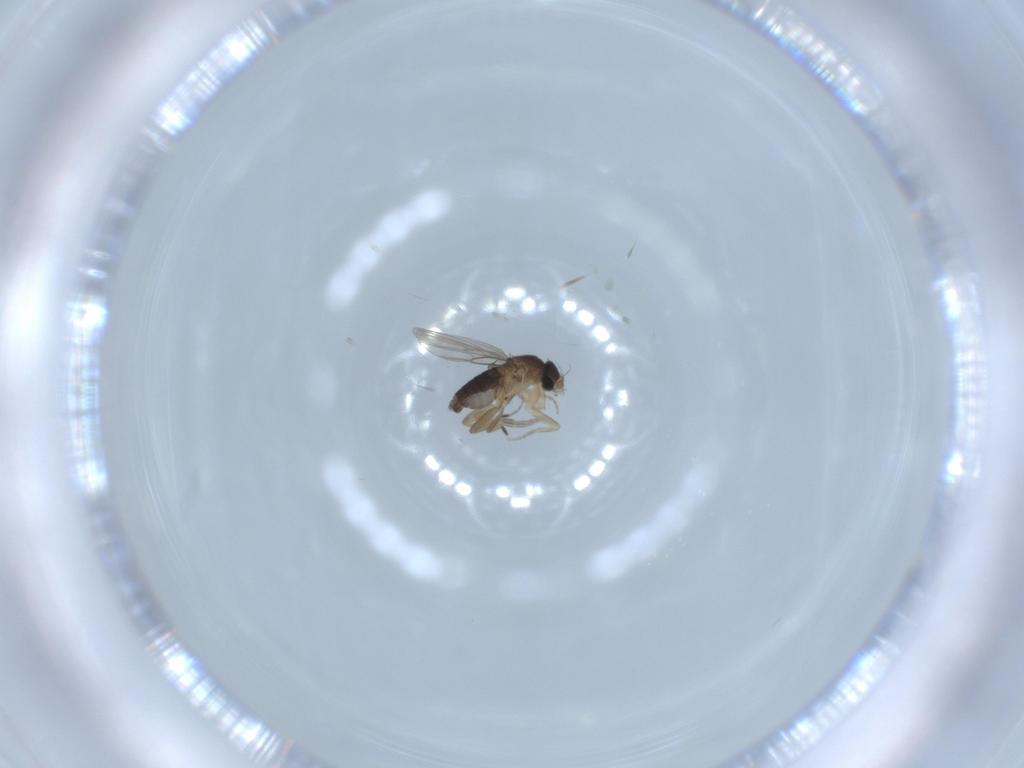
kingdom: Animalia
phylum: Arthropoda
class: Insecta
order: Diptera
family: Phoridae
